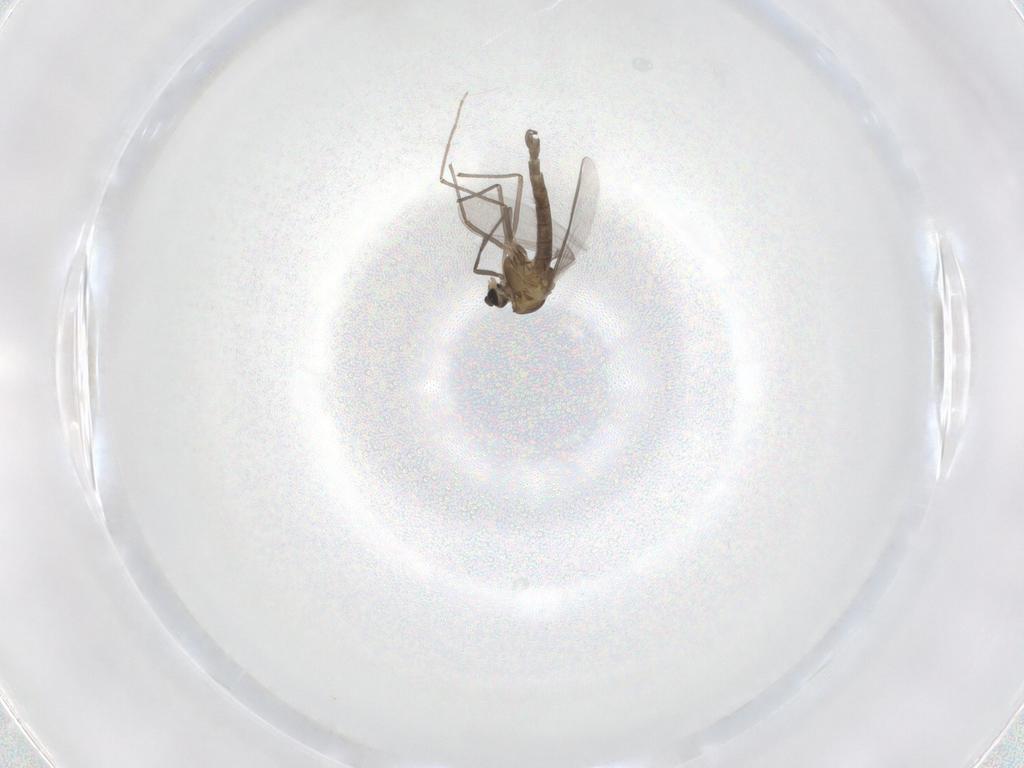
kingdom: Animalia
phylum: Arthropoda
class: Insecta
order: Diptera
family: Chironomidae
